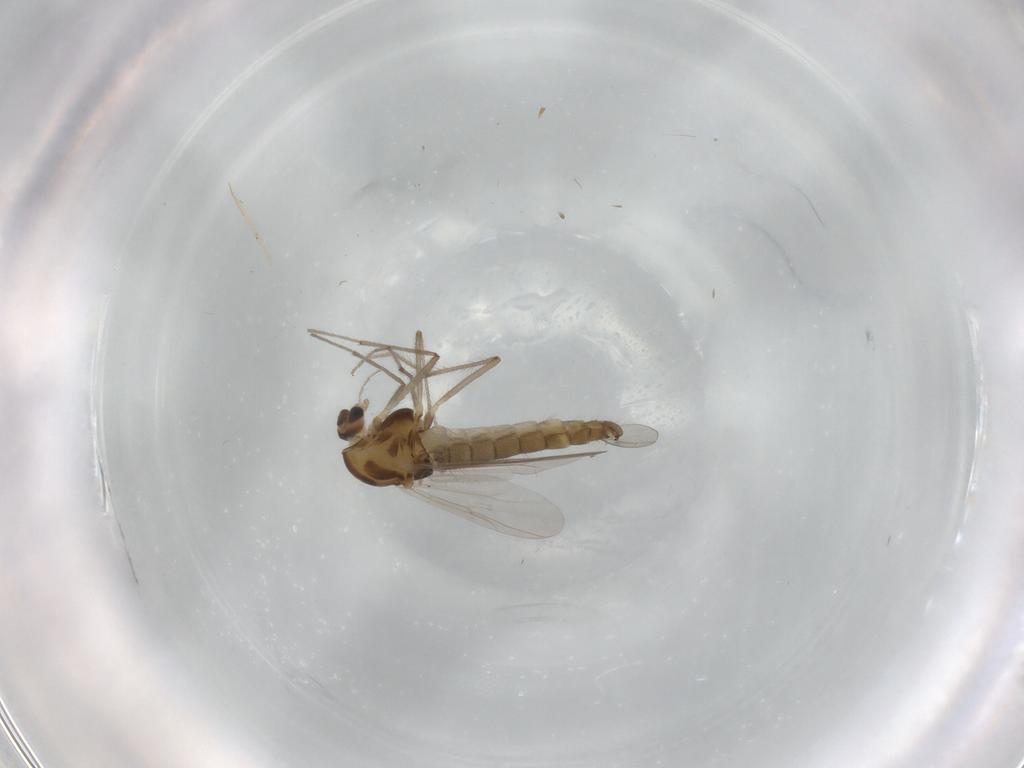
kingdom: Animalia
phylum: Arthropoda
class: Insecta
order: Diptera
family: Chironomidae
